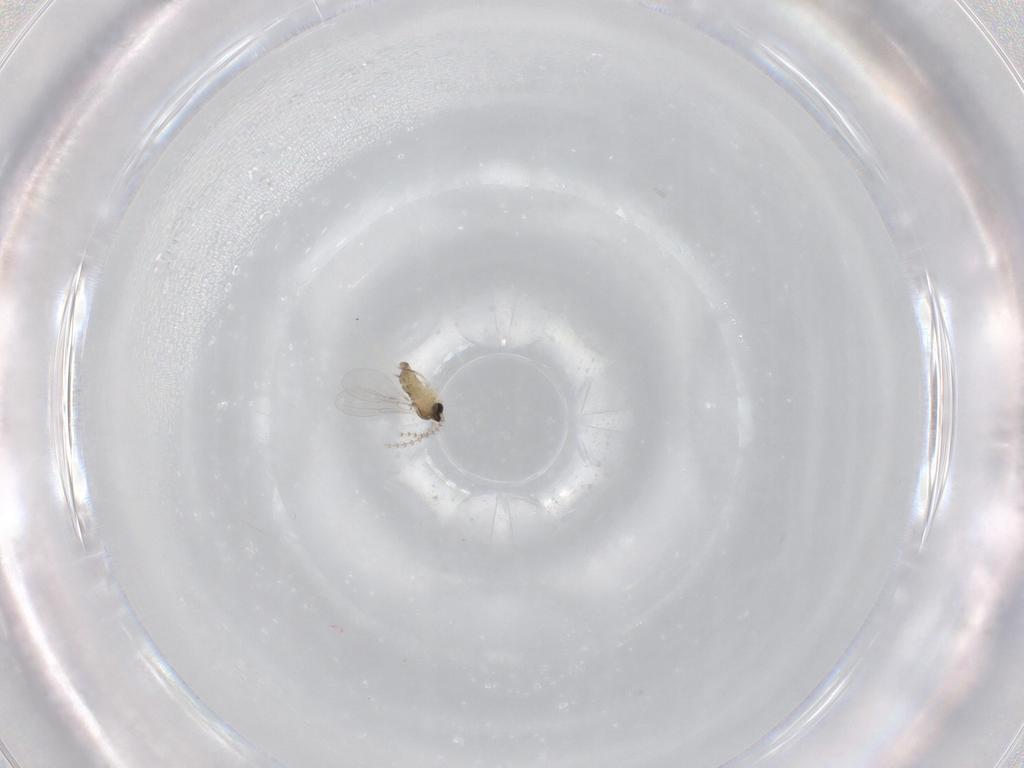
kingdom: Animalia
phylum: Arthropoda
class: Insecta
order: Diptera
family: Cecidomyiidae
